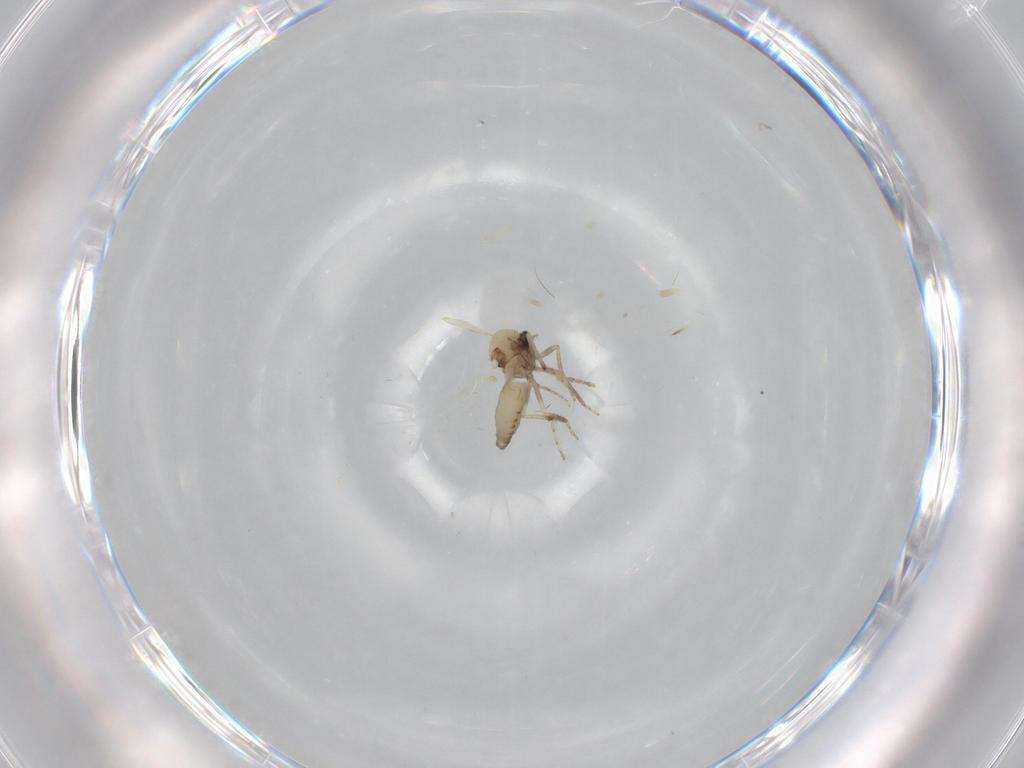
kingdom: Animalia
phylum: Arthropoda
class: Insecta
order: Diptera
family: Ceratopogonidae
